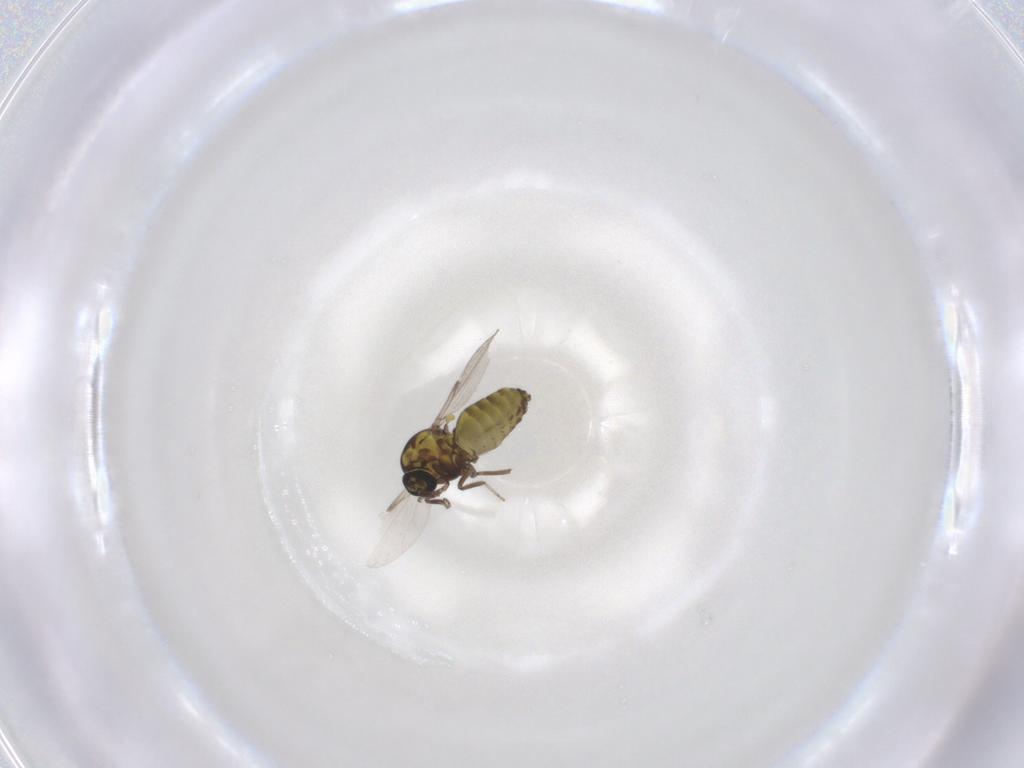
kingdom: Animalia
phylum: Arthropoda
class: Insecta
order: Diptera
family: Ceratopogonidae
